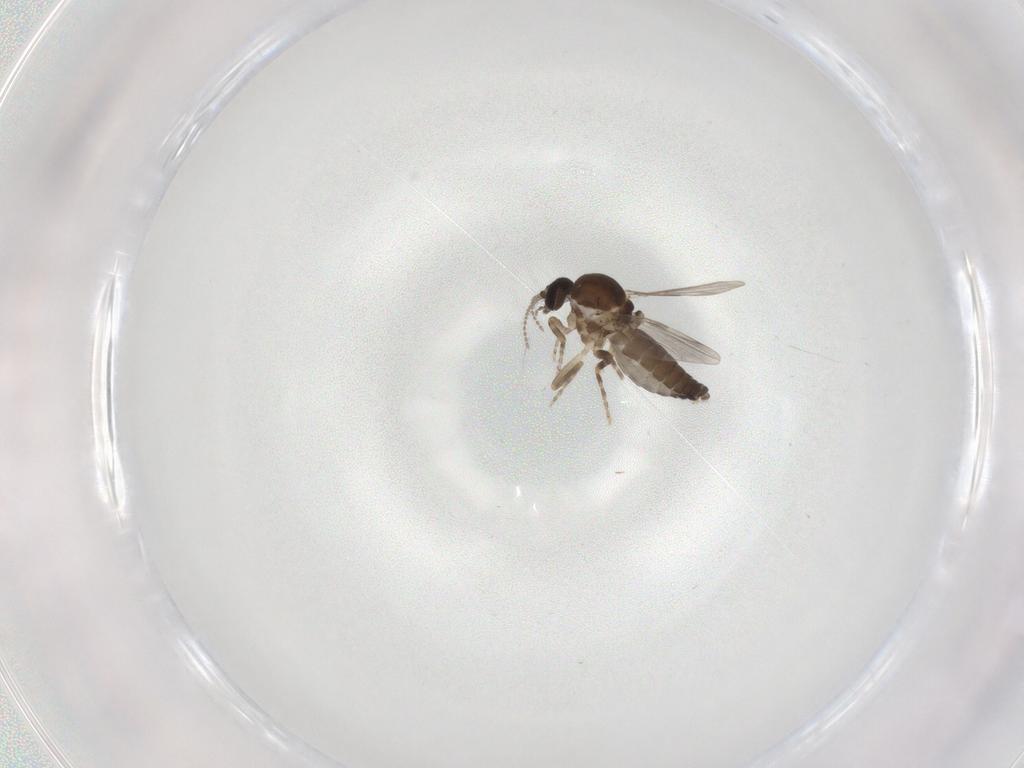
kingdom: Animalia
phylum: Arthropoda
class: Insecta
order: Diptera
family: Ceratopogonidae
